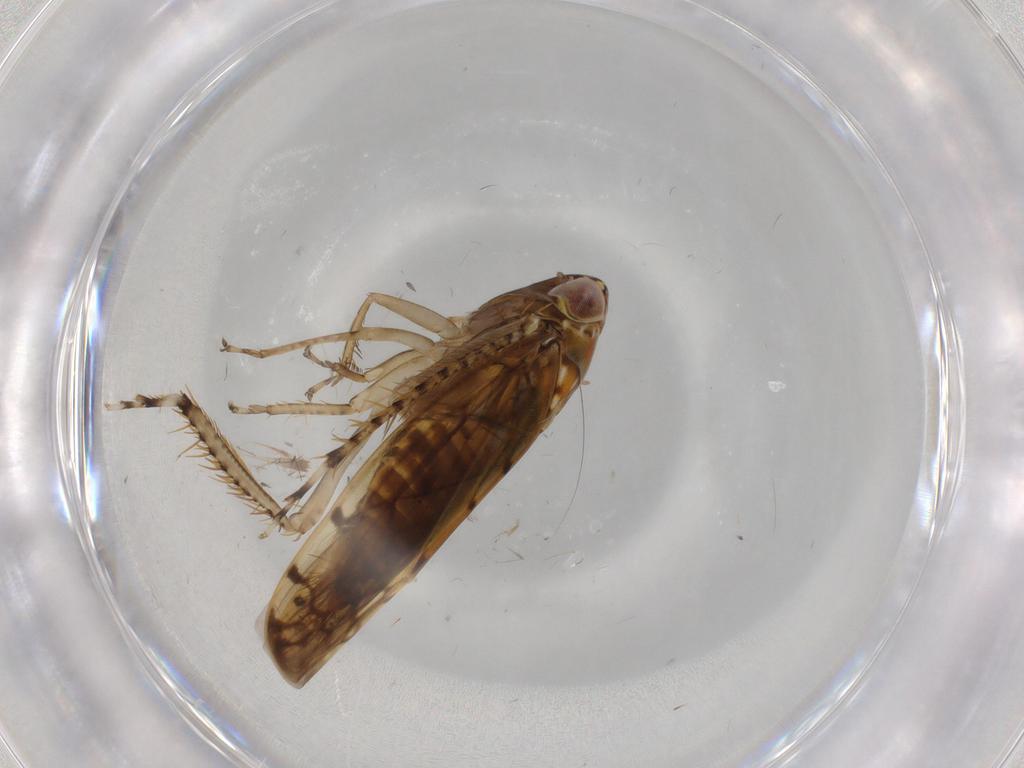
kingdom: Animalia
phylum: Arthropoda
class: Insecta
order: Hemiptera
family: Cicadellidae
